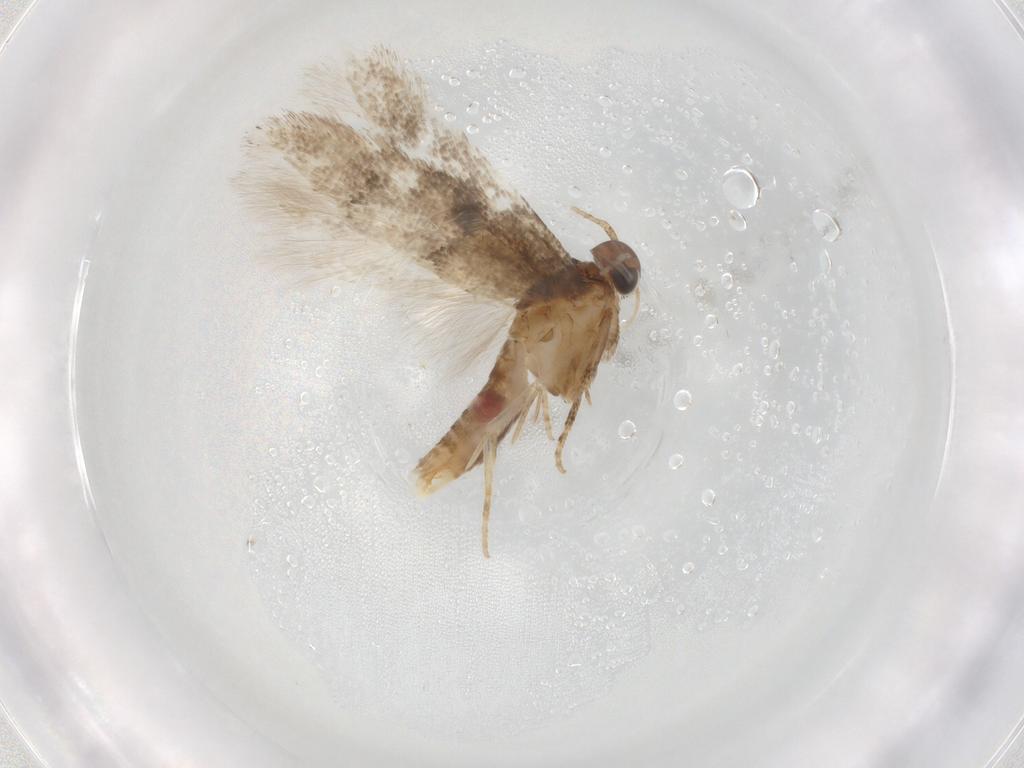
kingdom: Animalia
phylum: Arthropoda
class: Insecta
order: Lepidoptera
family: Gelechiidae
